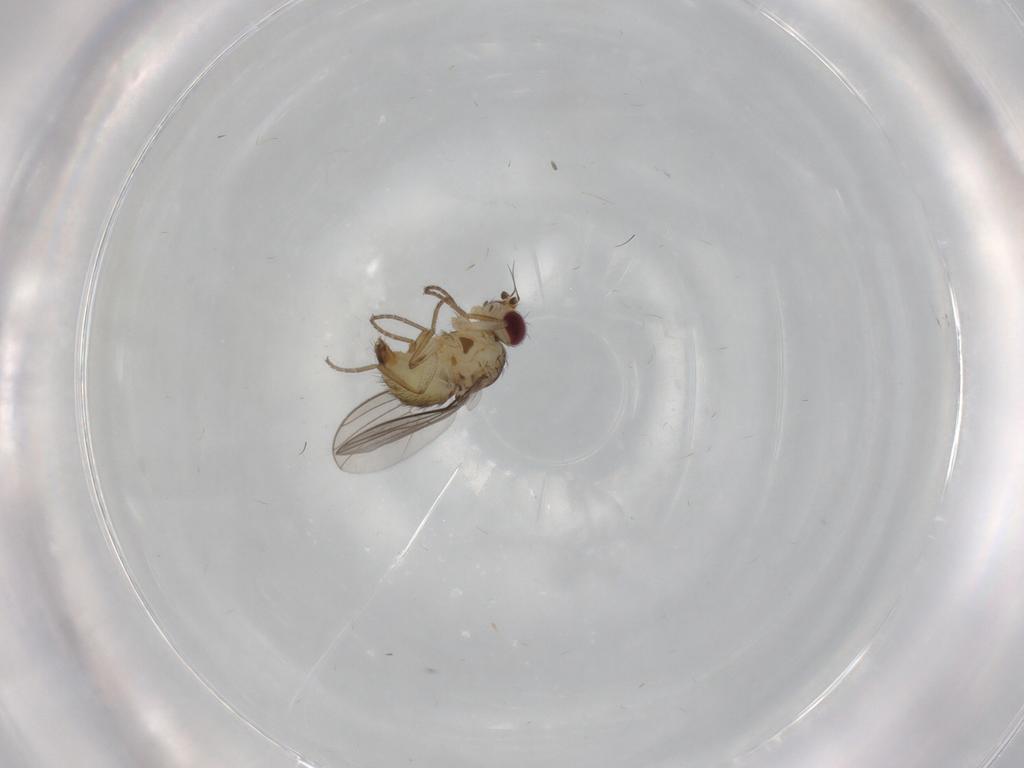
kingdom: Animalia
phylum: Arthropoda
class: Insecta
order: Diptera
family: Agromyzidae
